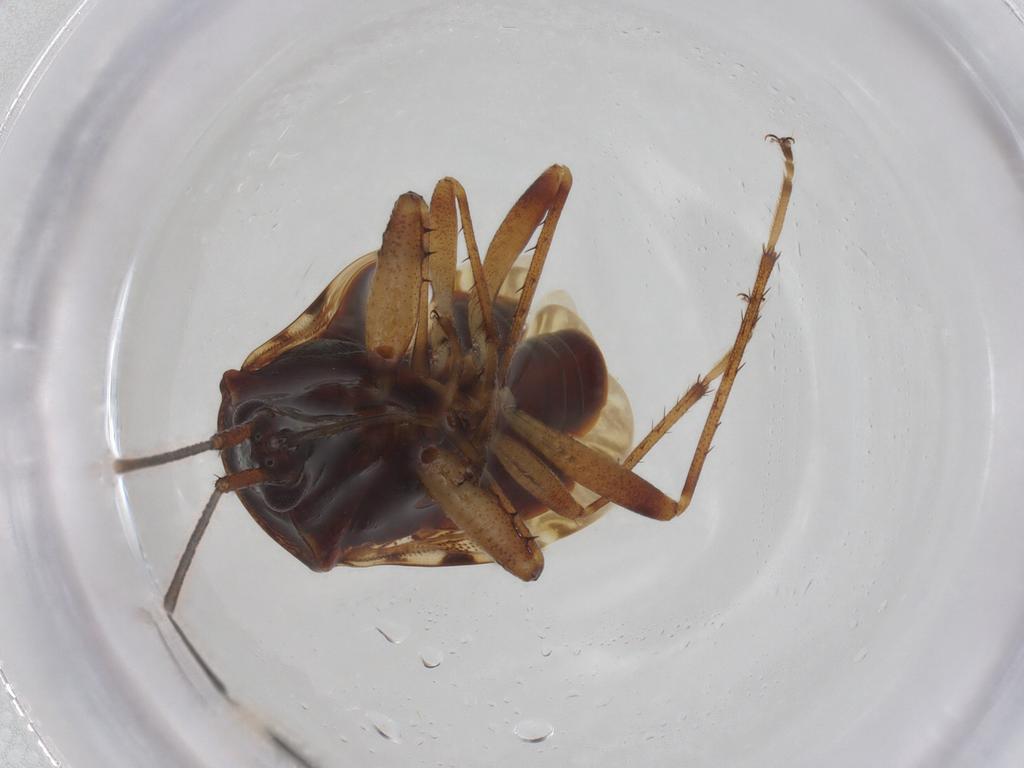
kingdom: Animalia
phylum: Arthropoda
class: Insecta
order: Hemiptera
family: Rhyparochromidae
